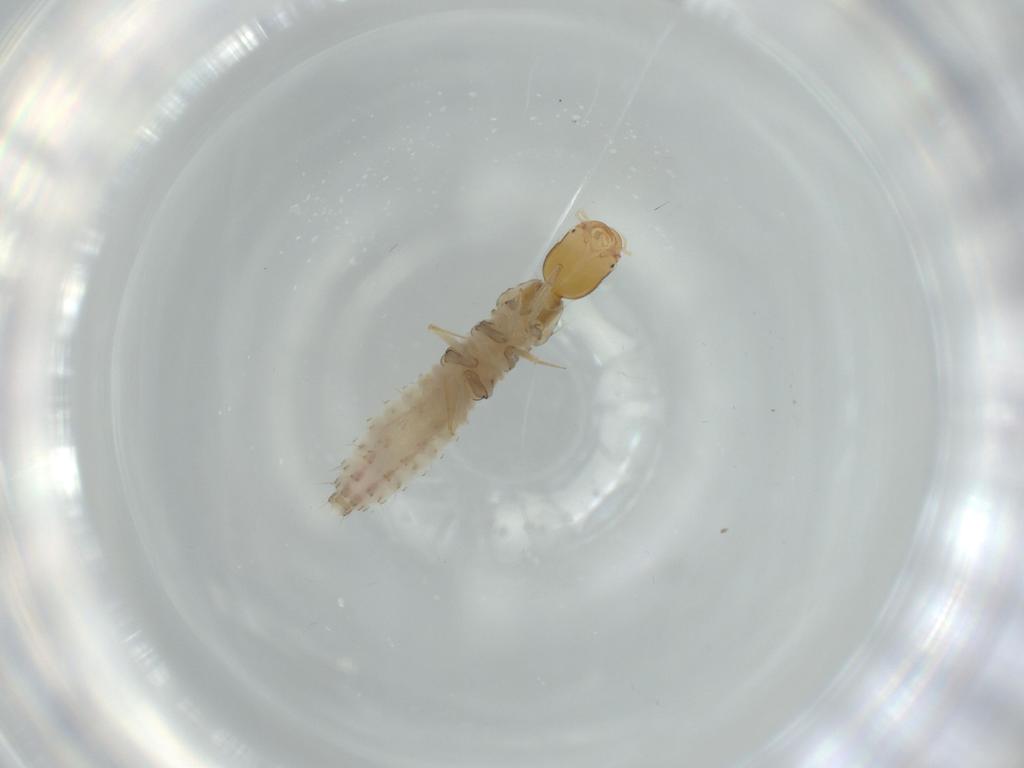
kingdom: Animalia
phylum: Arthropoda
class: Insecta
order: Coleoptera
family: Staphylinidae
